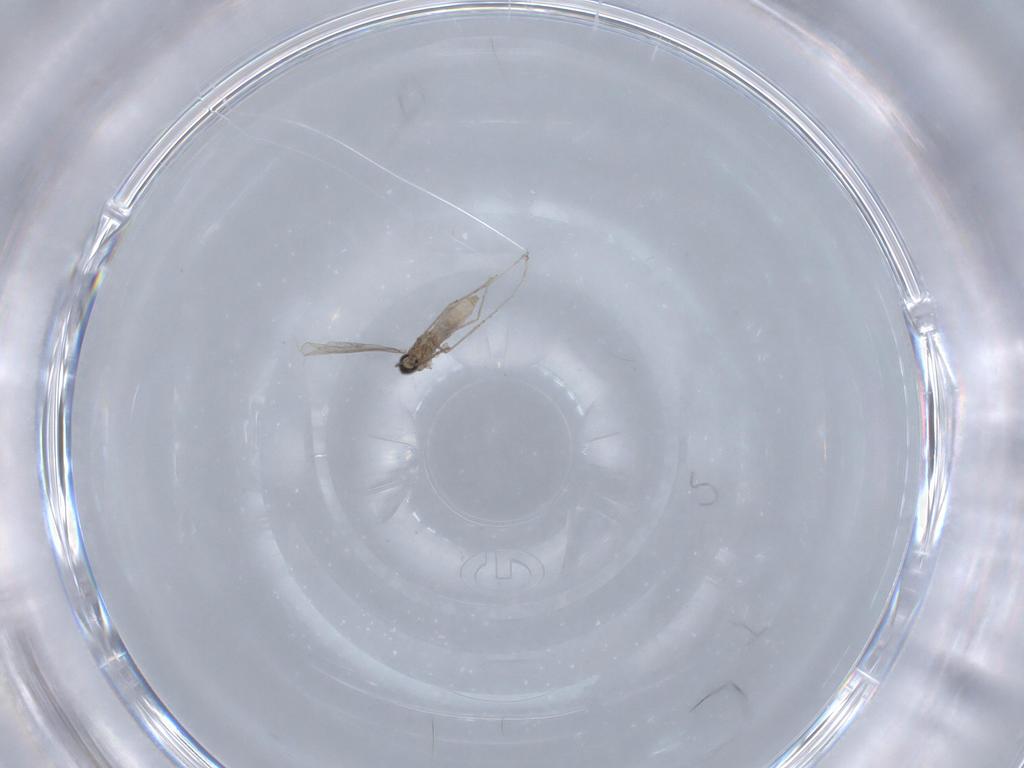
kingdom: Animalia
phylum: Arthropoda
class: Insecta
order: Diptera
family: Cecidomyiidae
